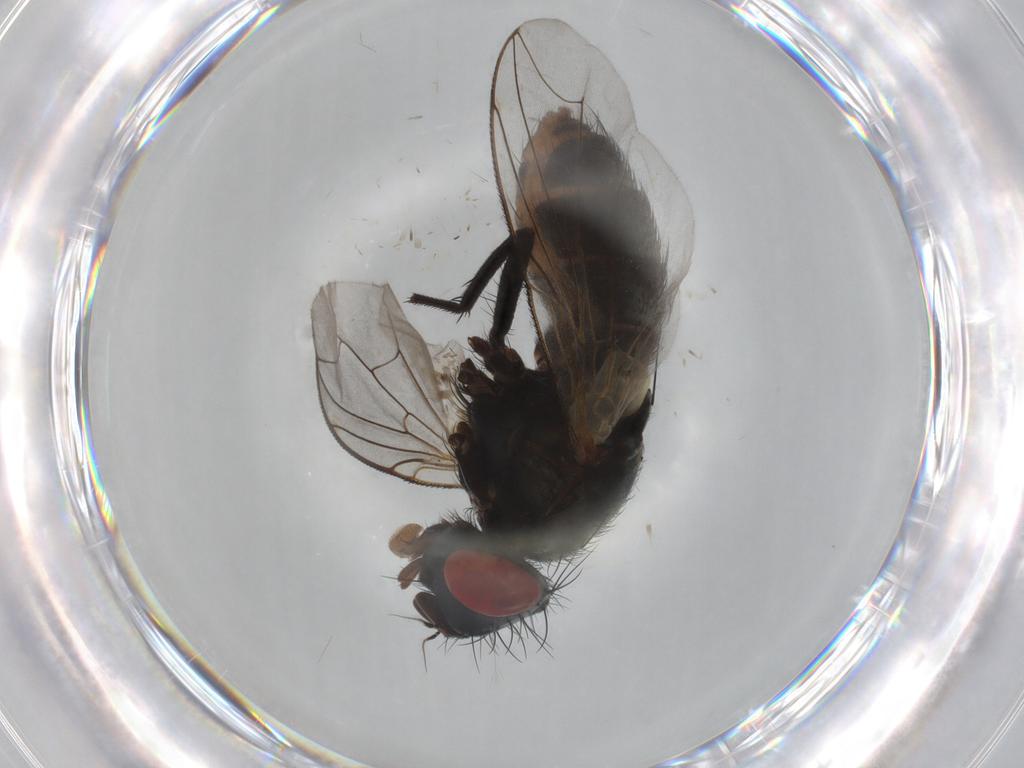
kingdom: Animalia
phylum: Arthropoda
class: Insecta
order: Diptera
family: Sarcophagidae
